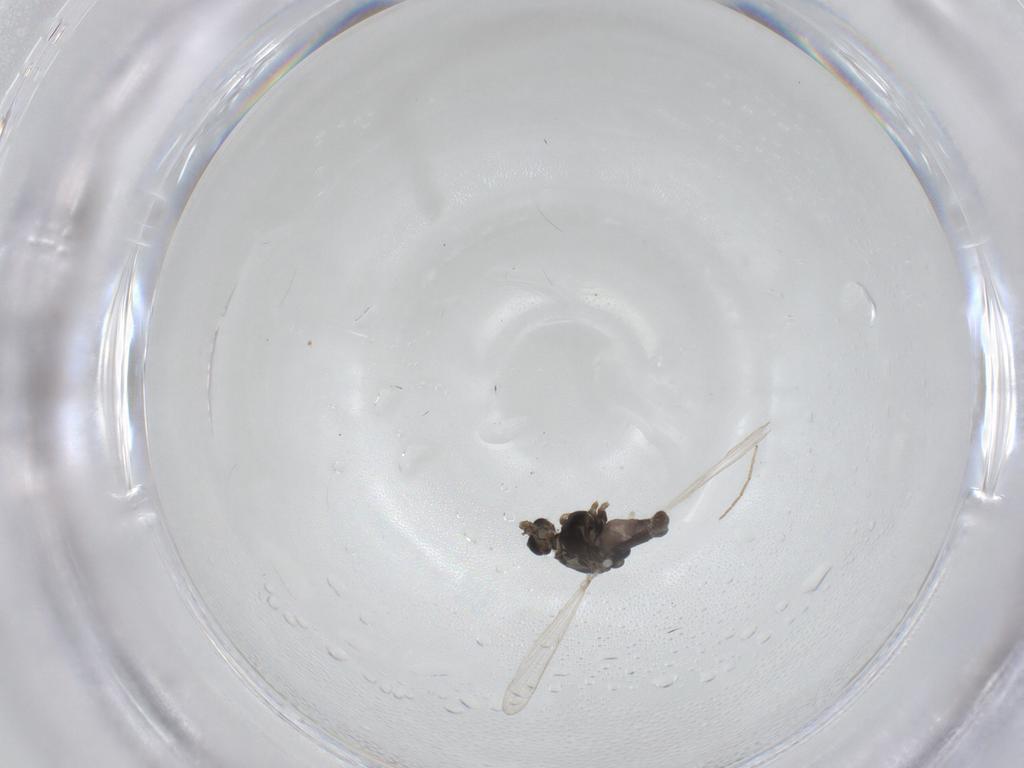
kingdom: Animalia
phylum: Arthropoda
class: Insecta
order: Diptera
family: Chironomidae
